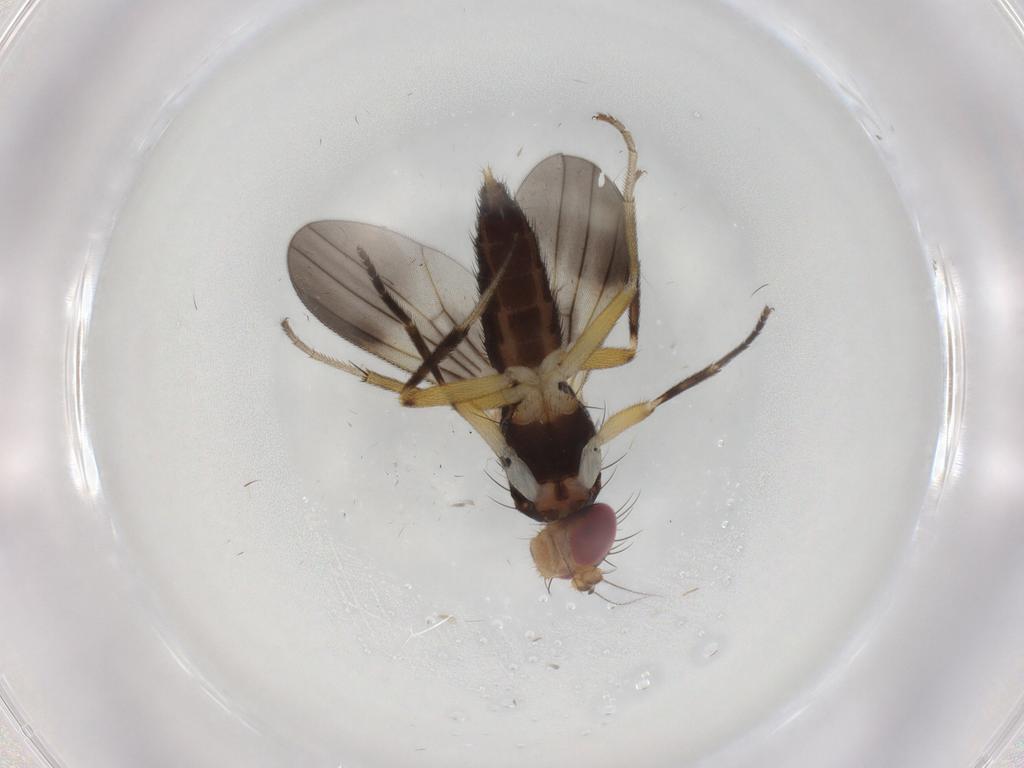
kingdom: Animalia
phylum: Arthropoda
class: Insecta
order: Diptera
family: Clusiidae
